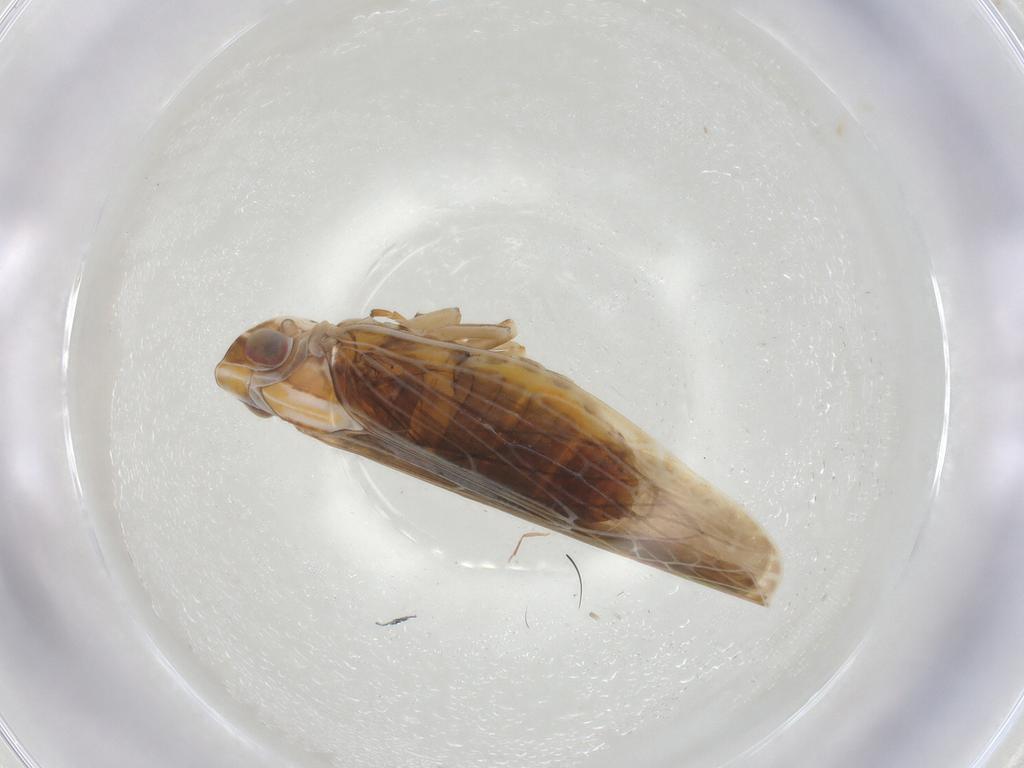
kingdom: Animalia
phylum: Arthropoda
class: Insecta
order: Hemiptera
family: Achilidae
